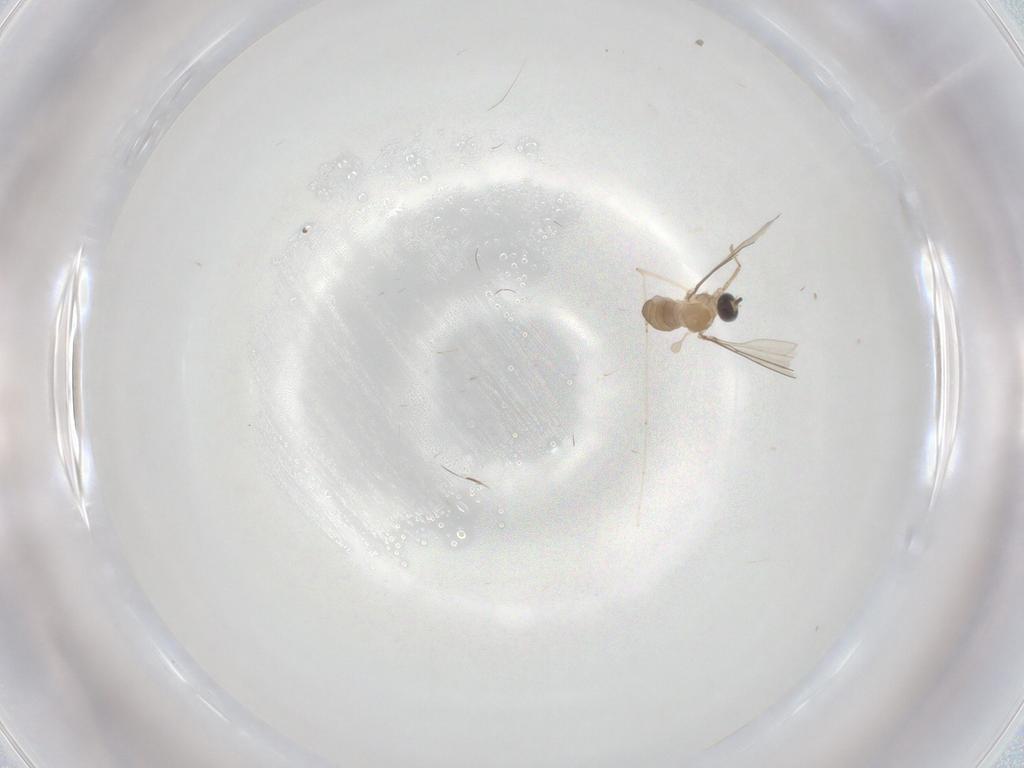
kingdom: Animalia
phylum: Arthropoda
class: Insecta
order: Diptera
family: Cecidomyiidae
